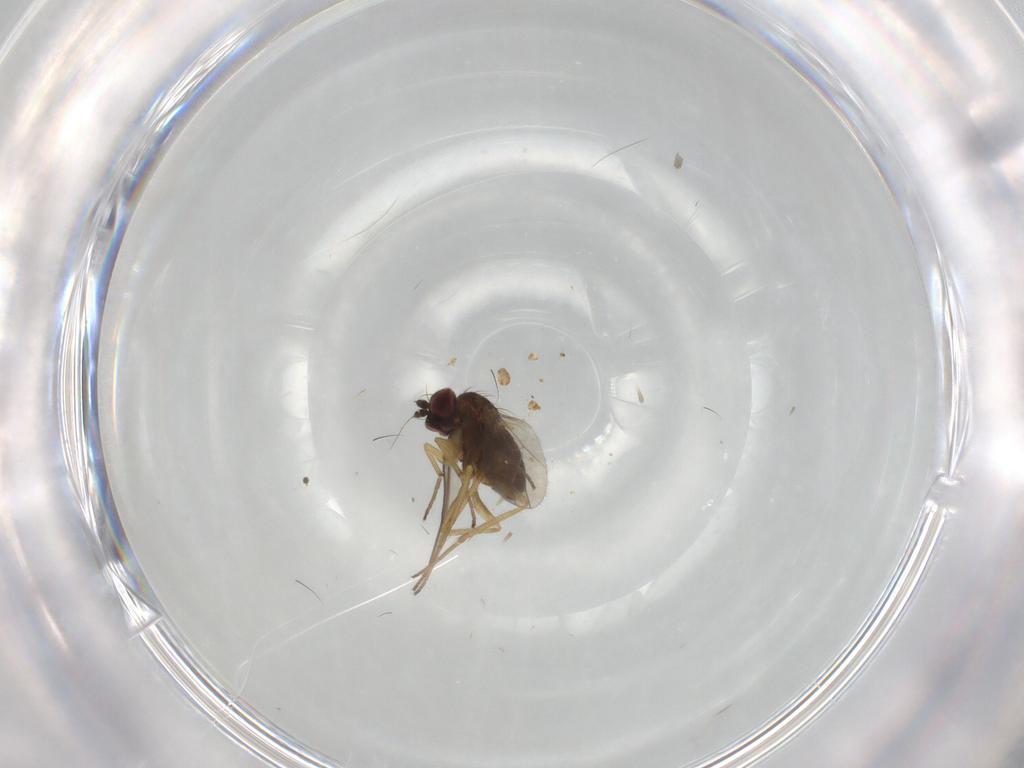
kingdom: Animalia
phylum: Arthropoda
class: Insecta
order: Diptera
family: Dolichopodidae
